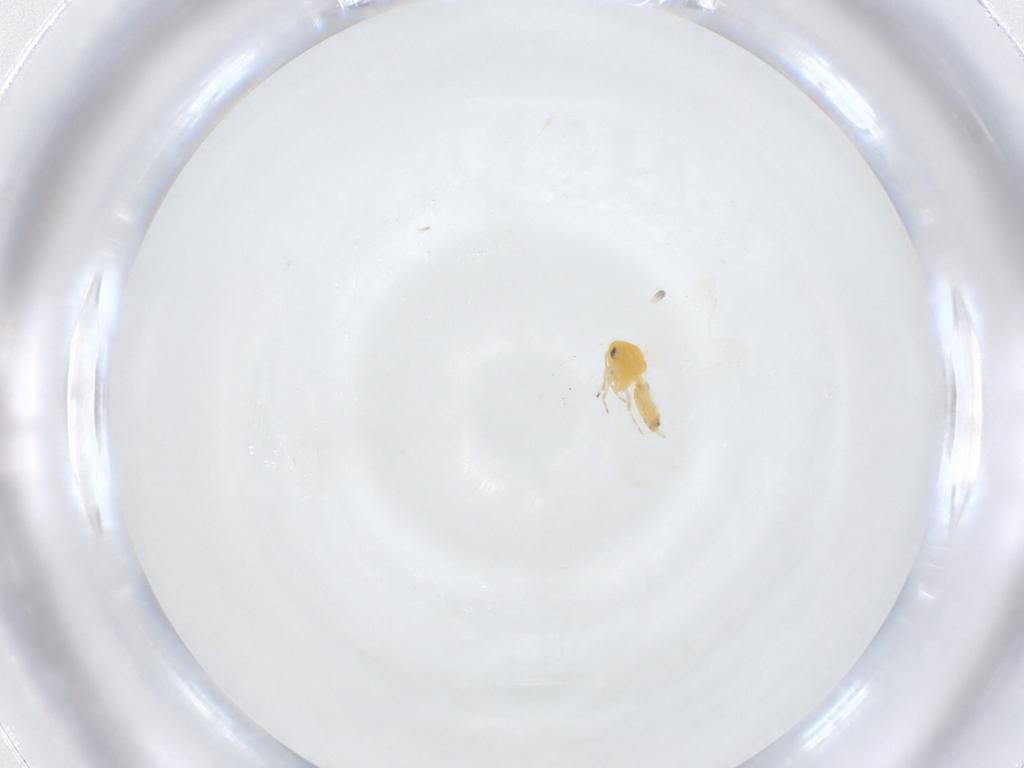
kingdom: Animalia
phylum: Arthropoda
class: Insecta
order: Hemiptera
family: Aleyrodidae
